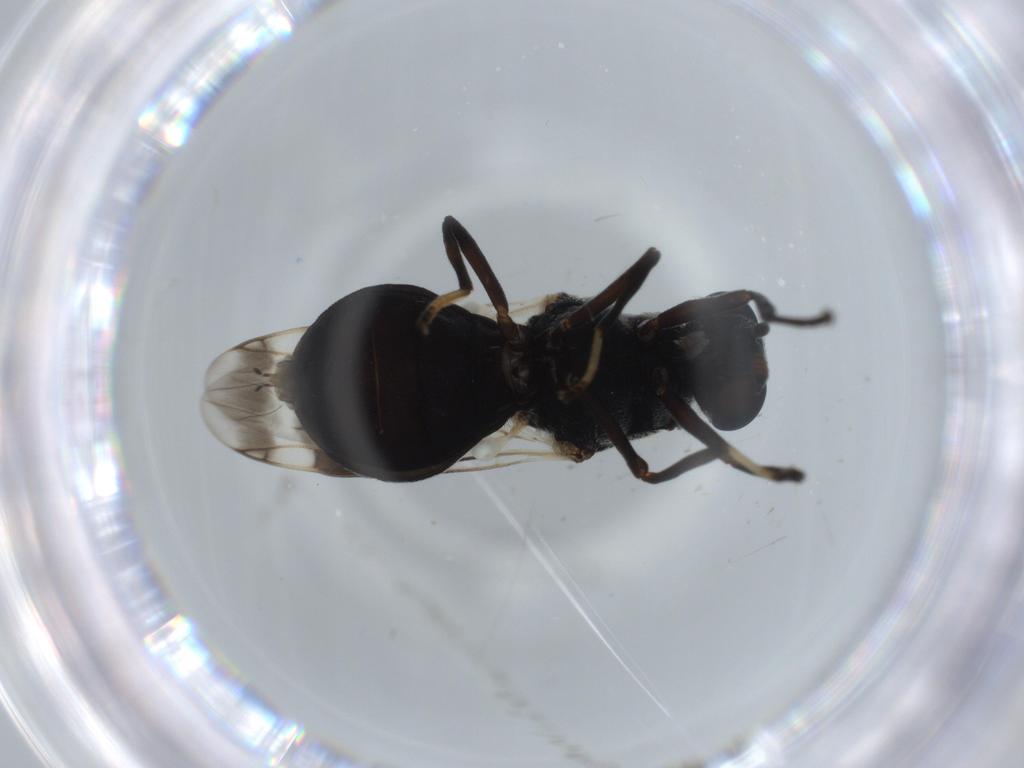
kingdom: Animalia
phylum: Arthropoda
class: Insecta
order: Diptera
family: Stratiomyidae
